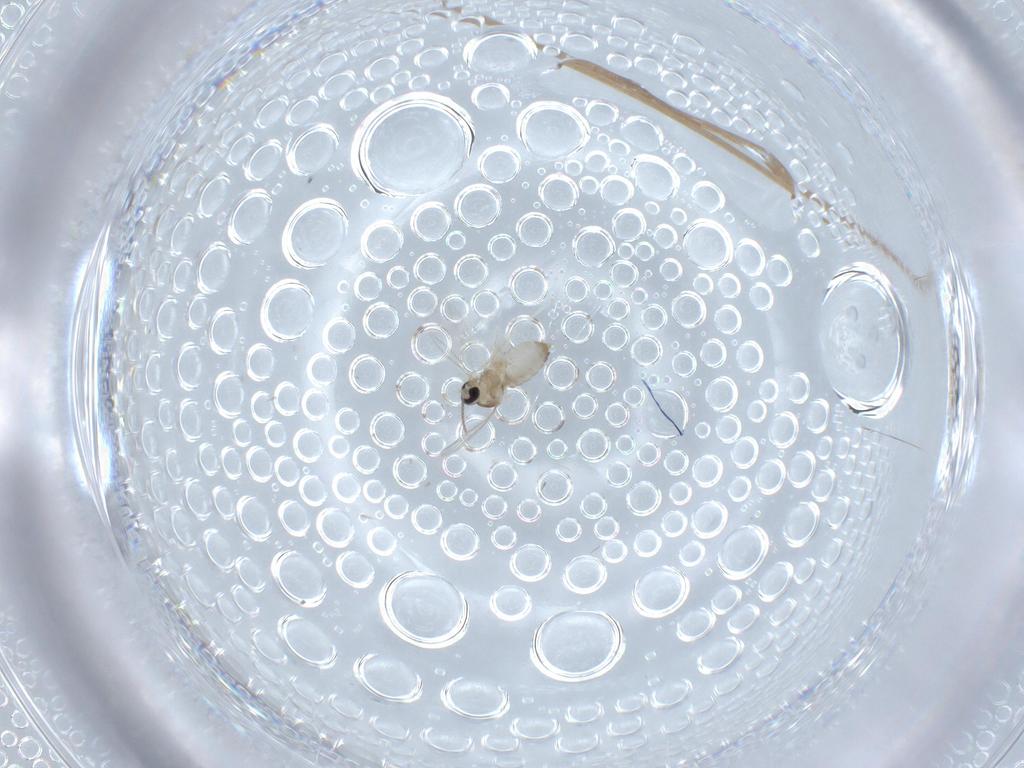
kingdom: Animalia
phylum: Arthropoda
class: Insecta
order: Diptera
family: Cecidomyiidae
